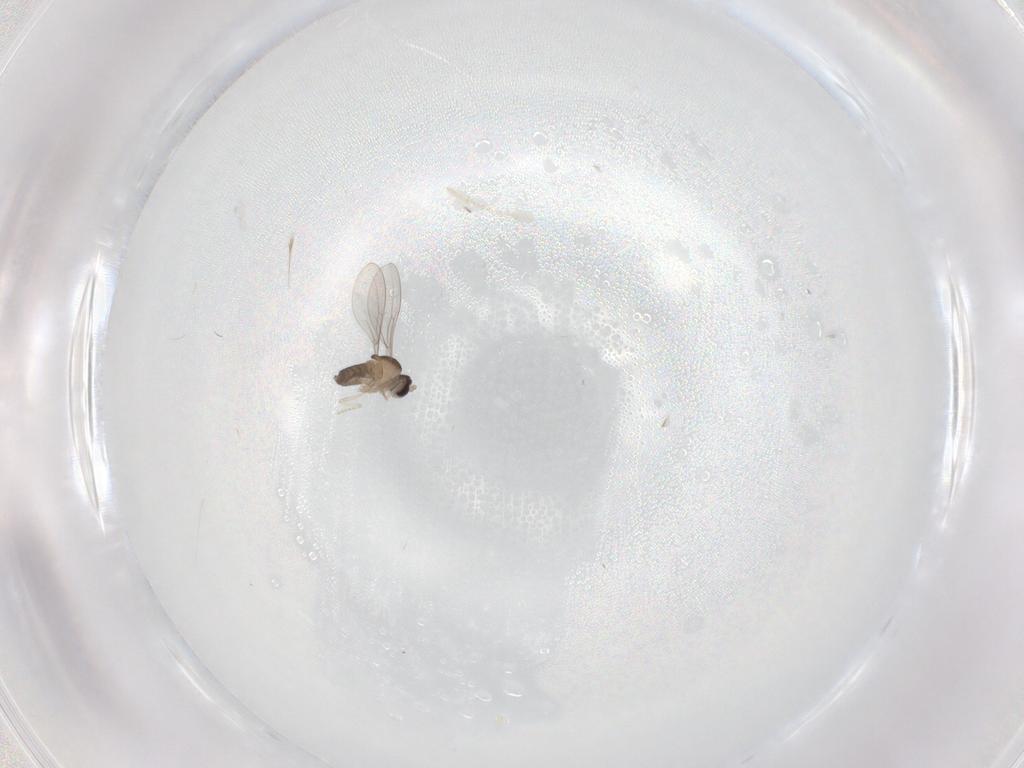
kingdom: Animalia
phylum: Arthropoda
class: Insecta
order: Diptera
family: Cecidomyiidae
